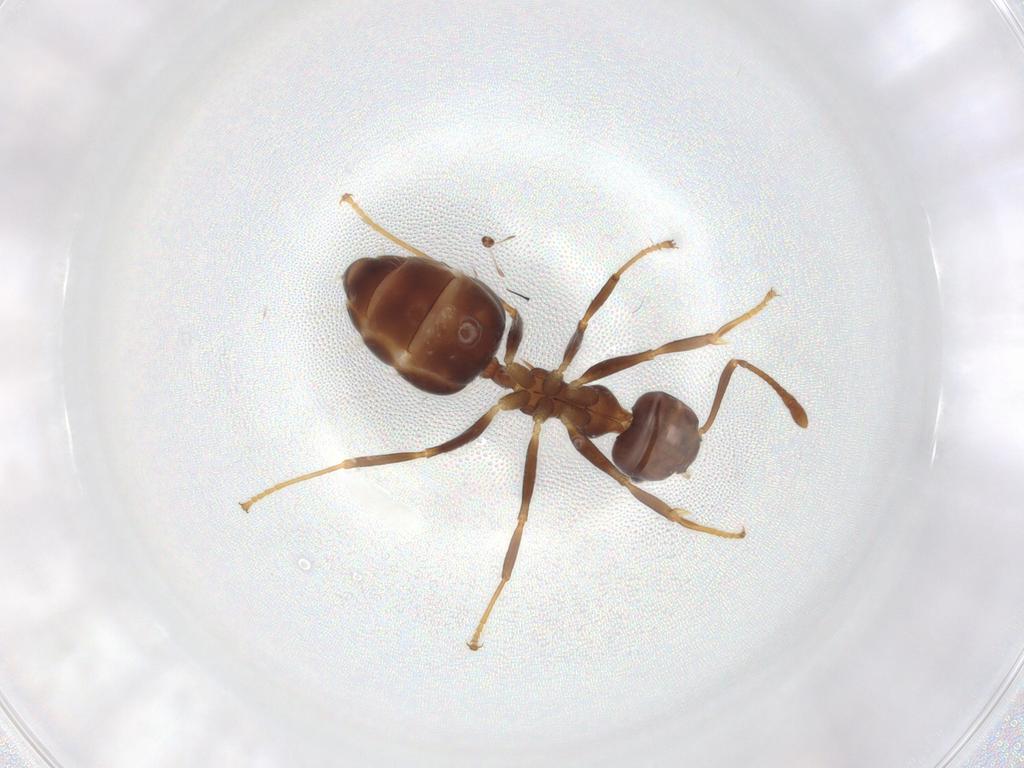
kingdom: Animalia
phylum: Arthropoda
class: Insecta
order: Hymenoptera
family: Formicidae
